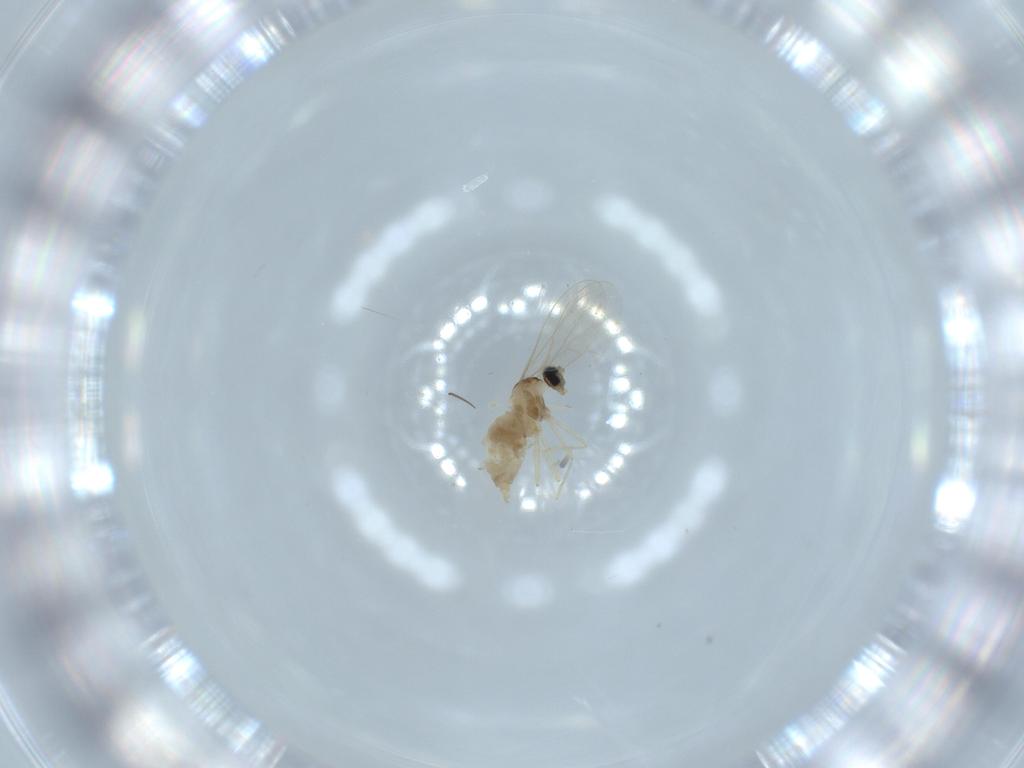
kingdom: Animalia
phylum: Arthropoda
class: Insecta
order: Diptera
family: Cecidomyiidae
